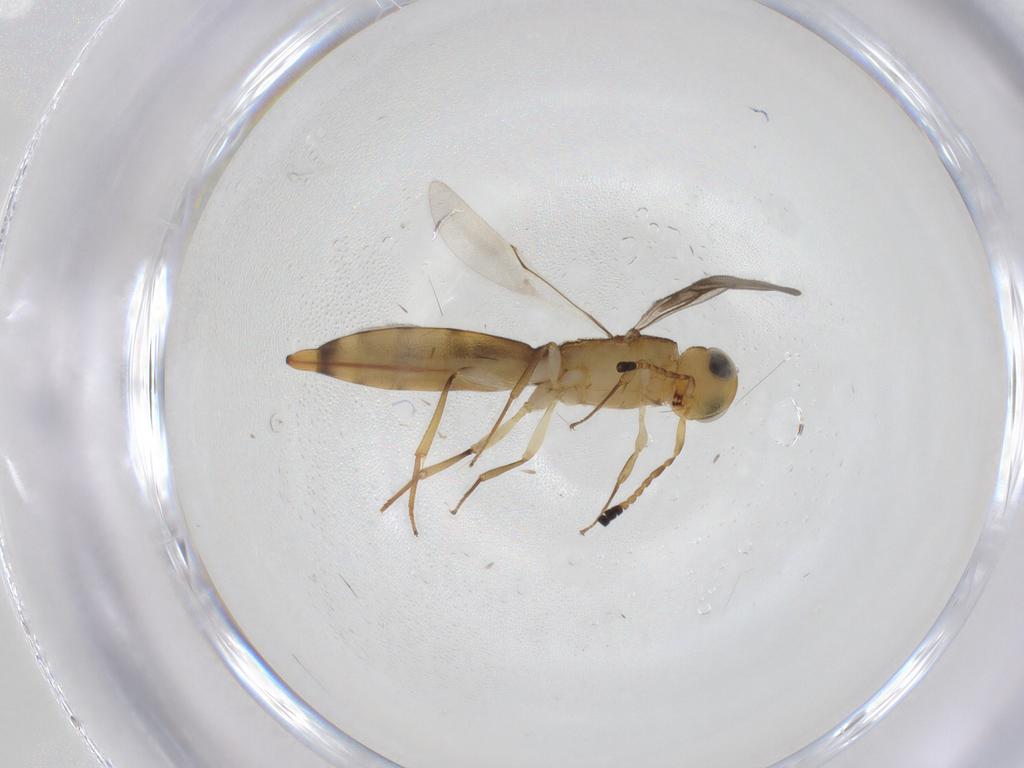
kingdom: Animalia
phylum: Arthropoda
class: Insecta
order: Hymenoptera
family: Scelionidae
